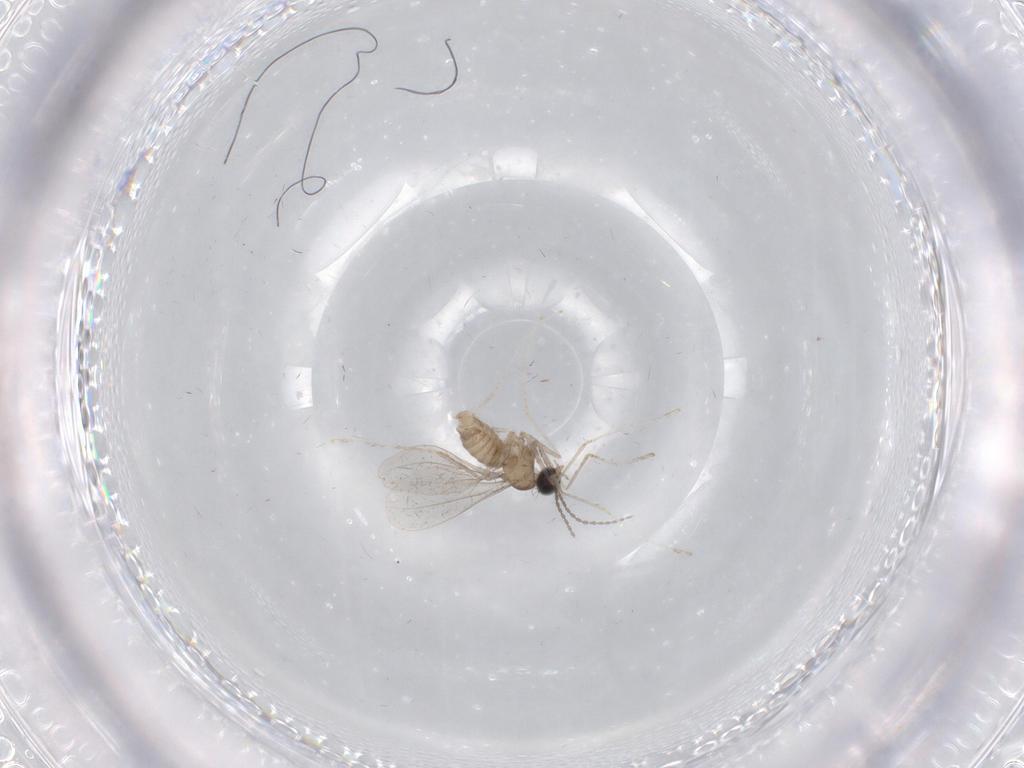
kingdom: Animalia
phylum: Arthropoda
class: Insecta
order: Diptera
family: Cecidomyiidae
